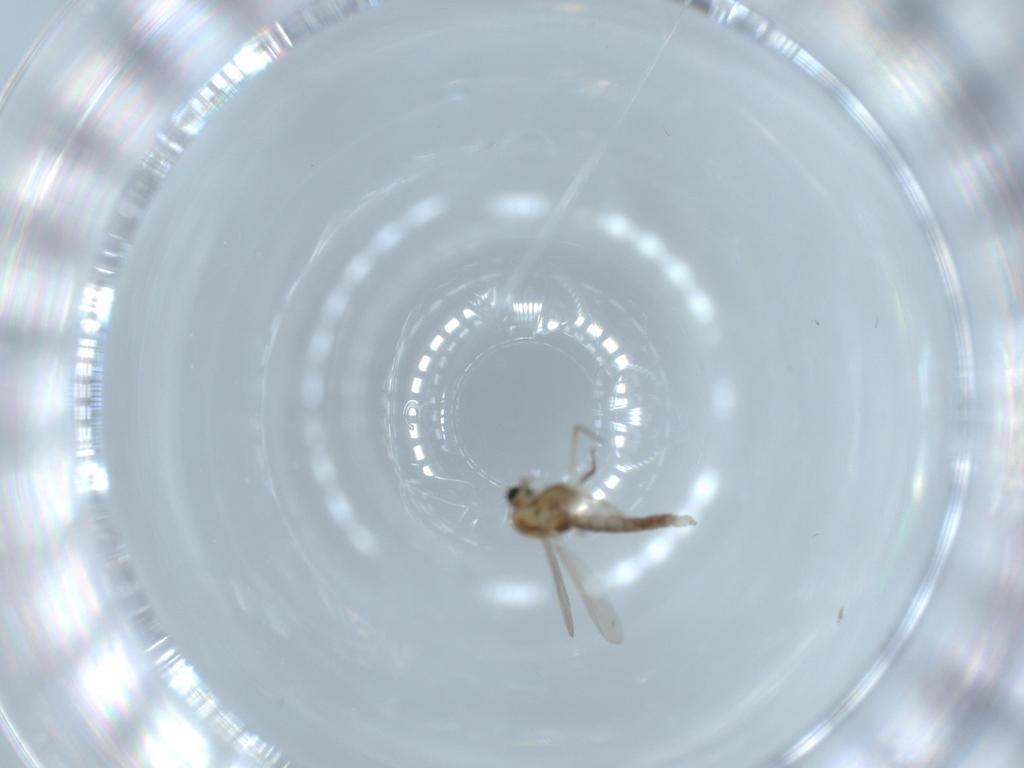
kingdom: Animalia
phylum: Arthropoda
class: Insecta
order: Diptera
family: Chironomidae
